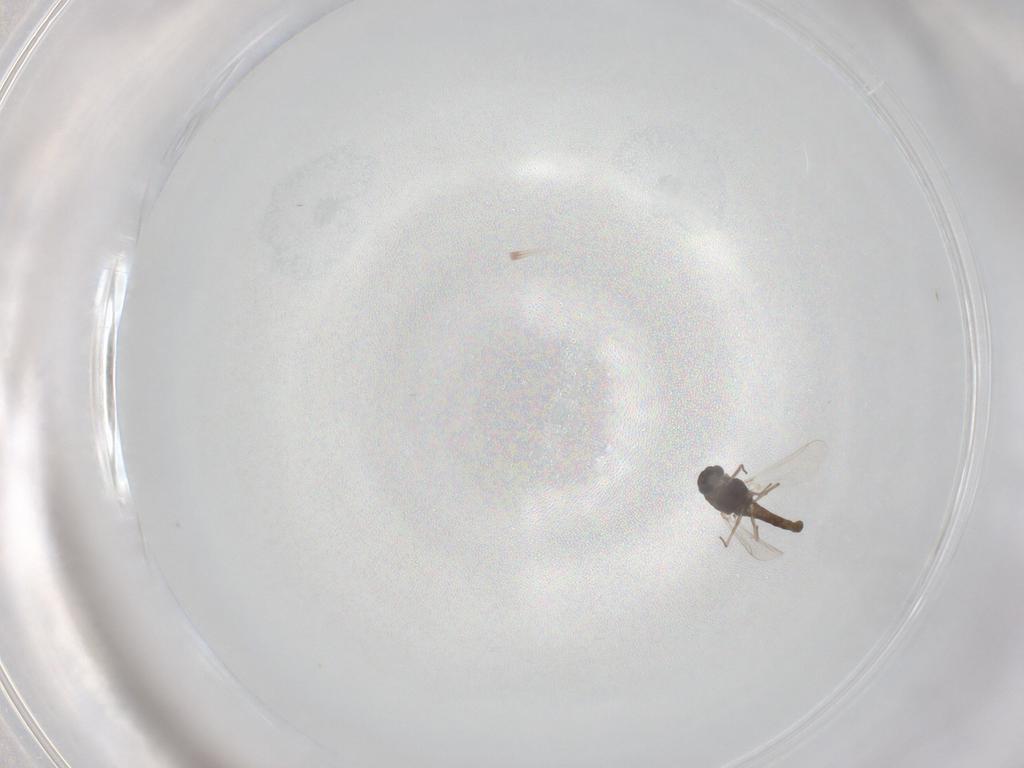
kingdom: Animalia
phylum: Arthropoda
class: Insecta
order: Diptera
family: Chironomidae
